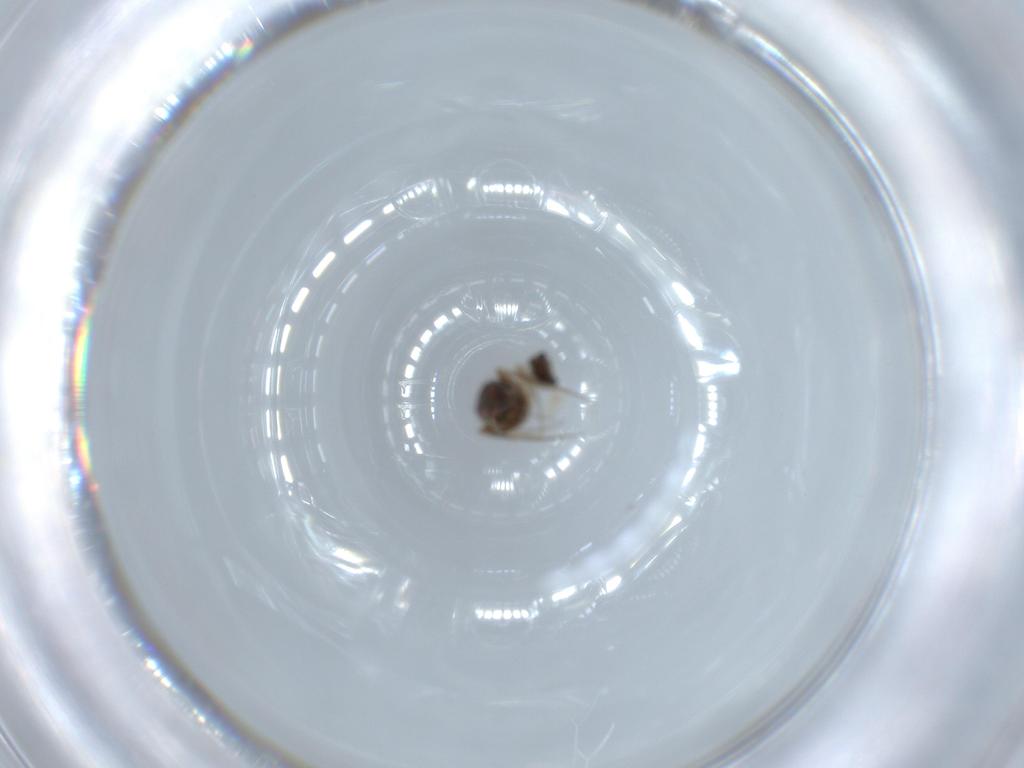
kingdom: Animalia
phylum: Arthropoda
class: Insecta
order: Diptera
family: Phoridae
